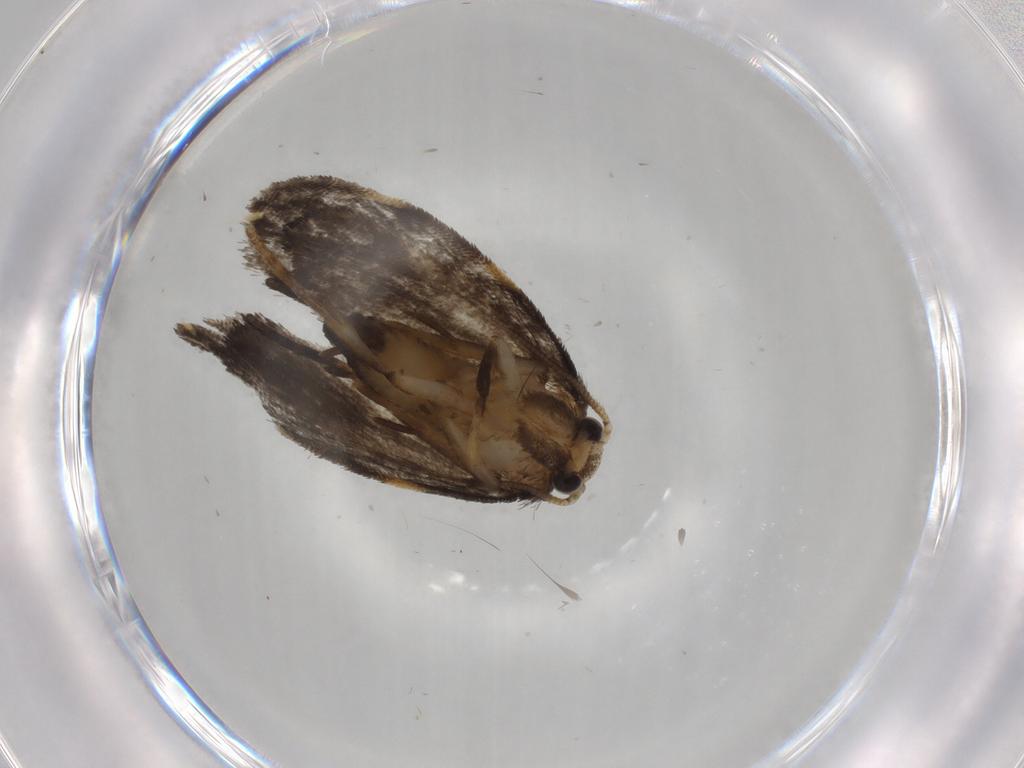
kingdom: Animalia
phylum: Arthropoda
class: Insecta
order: Lepidoptera
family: Psychidae
